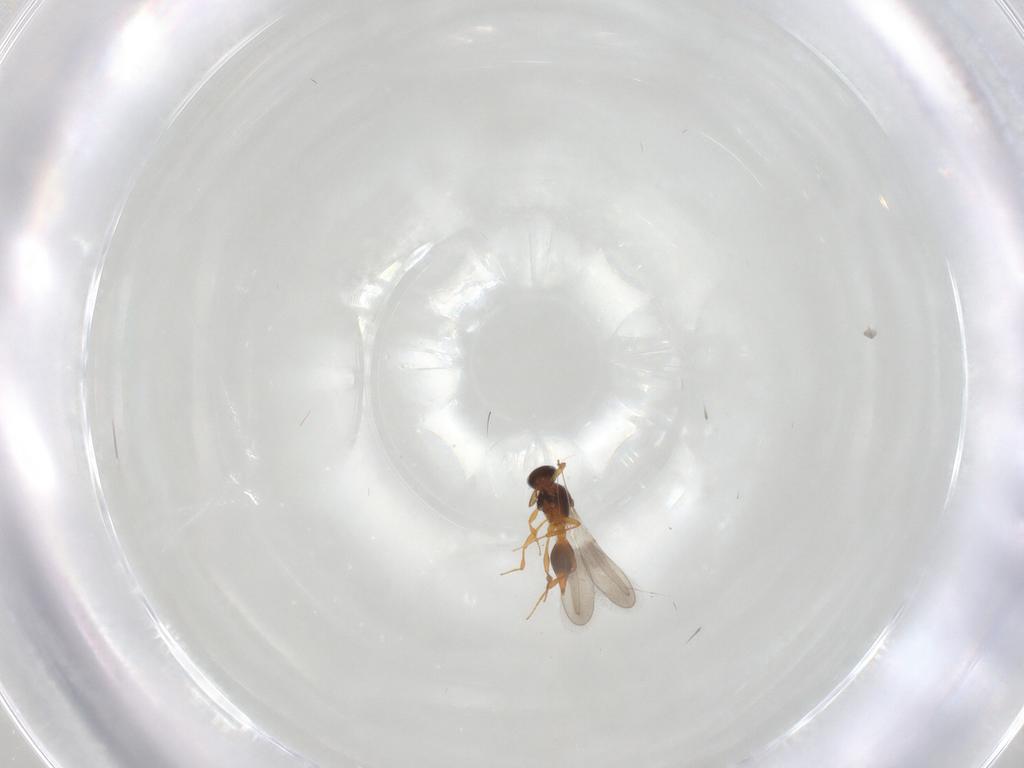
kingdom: Animalia
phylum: Arthropoda
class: Insecta
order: Hymenoptera
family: Platygastridae
